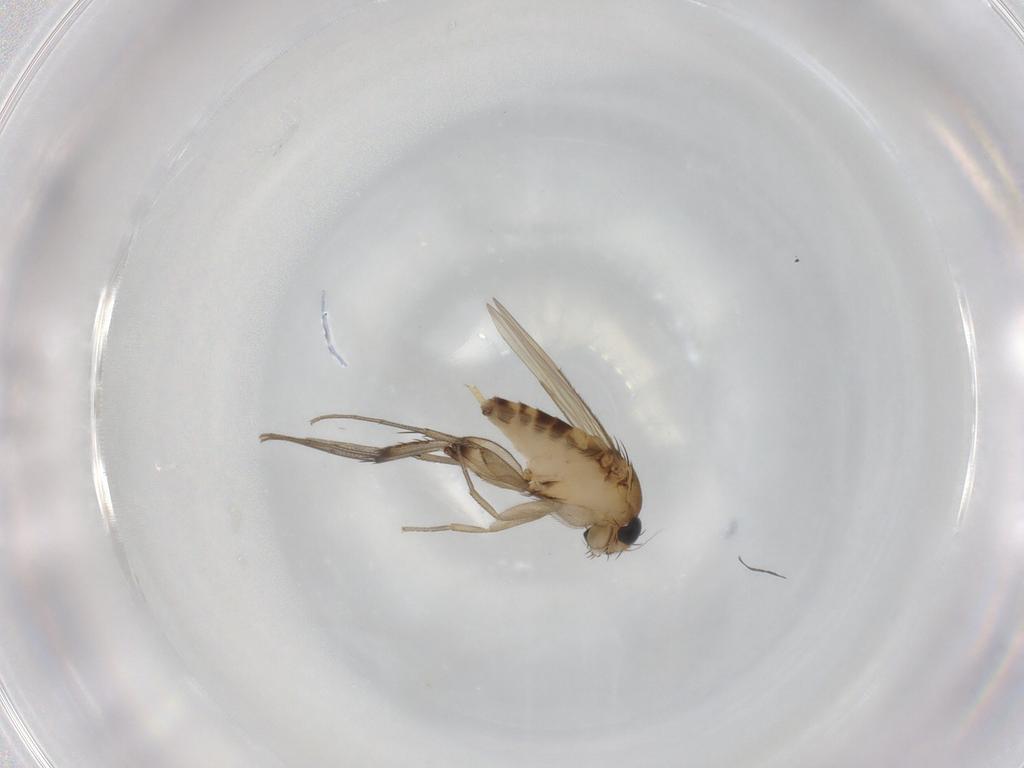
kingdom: Animalia
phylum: Arthropoda
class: Insecta
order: Diptera
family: Phoridae
